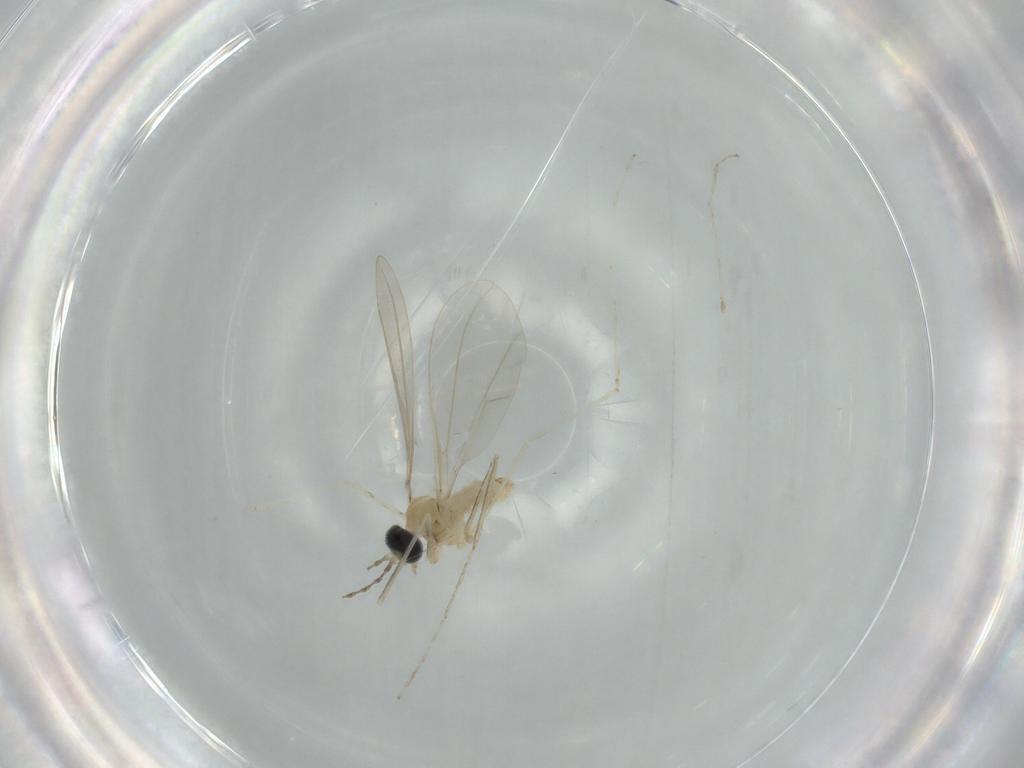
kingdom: Animalia
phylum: Arthropoda
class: Insecta
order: Diptera
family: Cecidomyiidae
